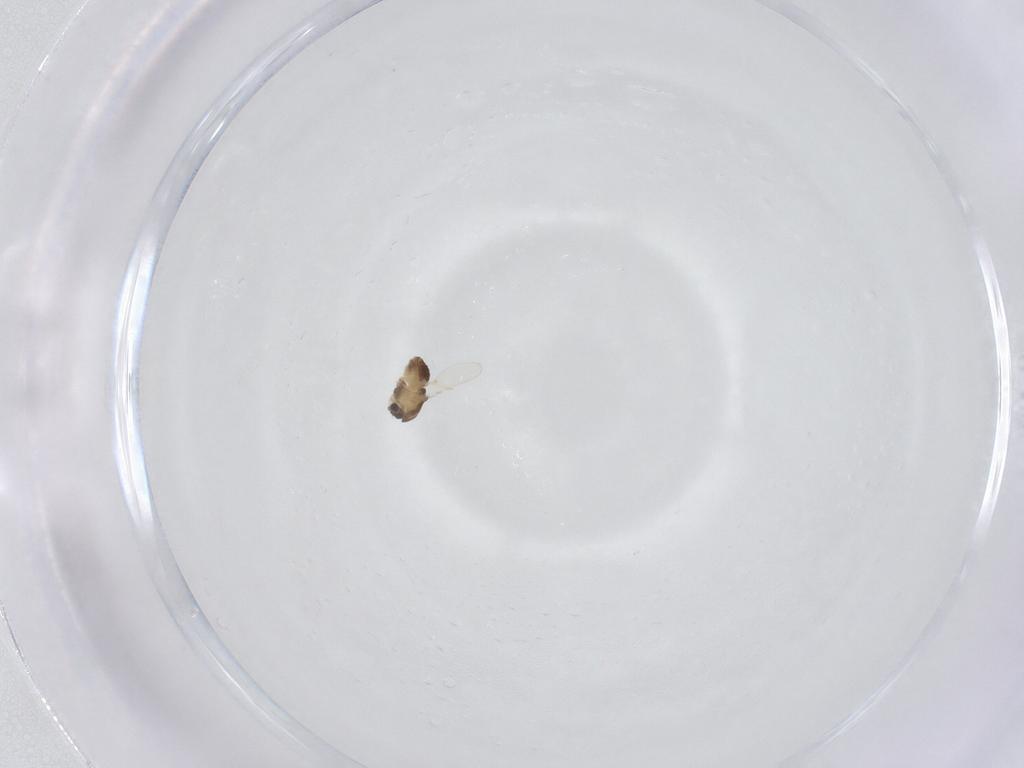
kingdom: Animalia
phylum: Arthropoda
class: Insecta
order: Diptera
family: Chironomidae
